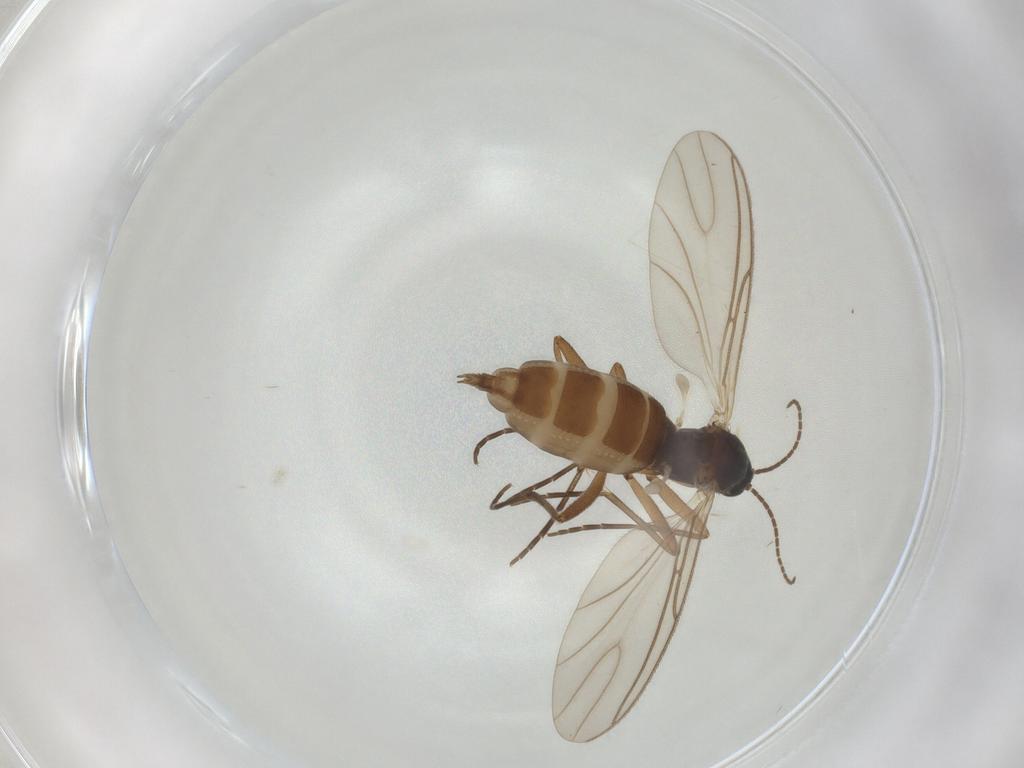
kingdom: Animalia
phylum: Arthropoda
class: Insecta
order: Diptera
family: Sciaridae
